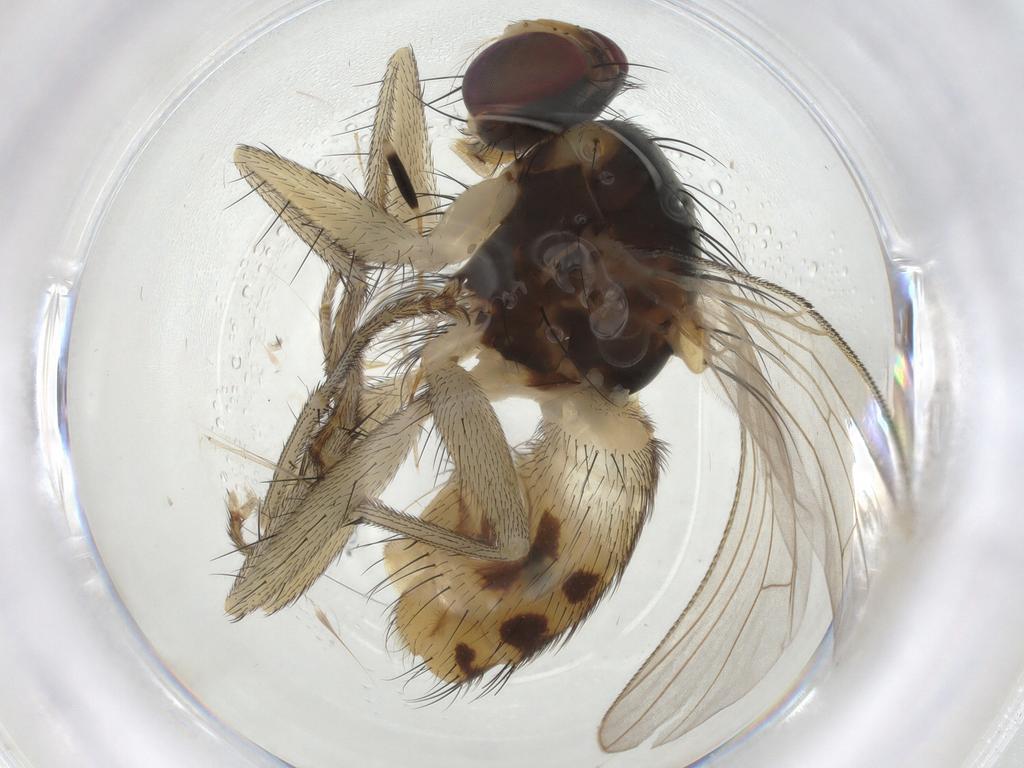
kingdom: Animalia
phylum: Arthropoda
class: Insecta
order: Diptera
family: Muscidae
